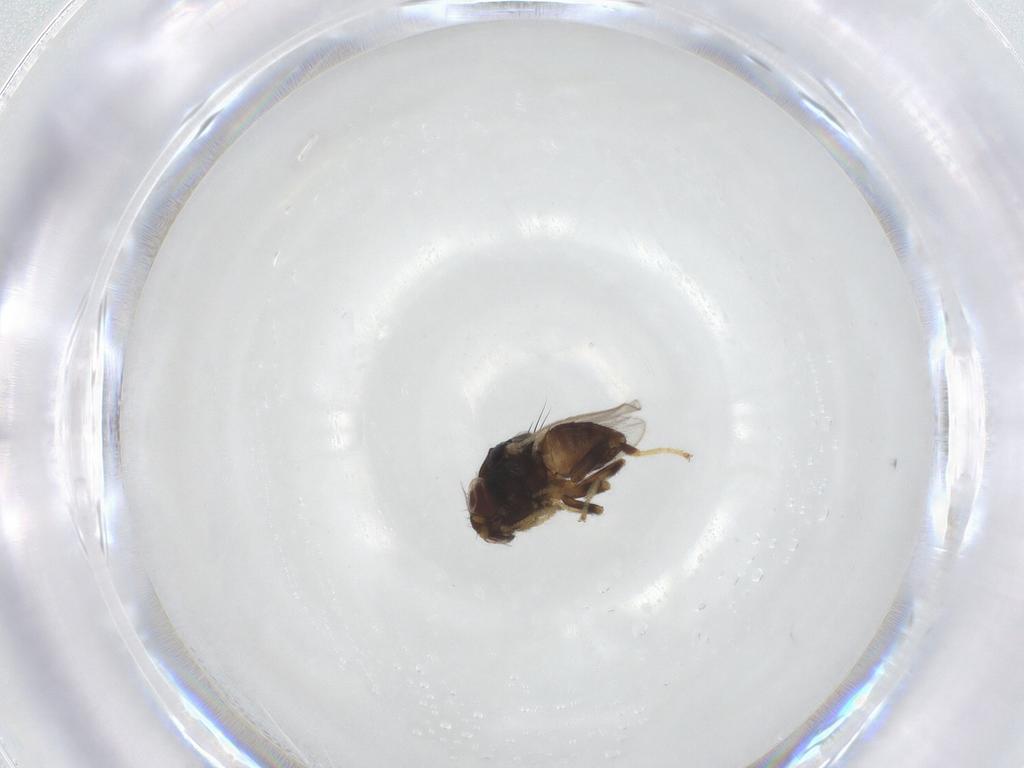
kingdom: Animalia
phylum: Arthropoda
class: Insecta
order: Diptera
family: Chloropidae
